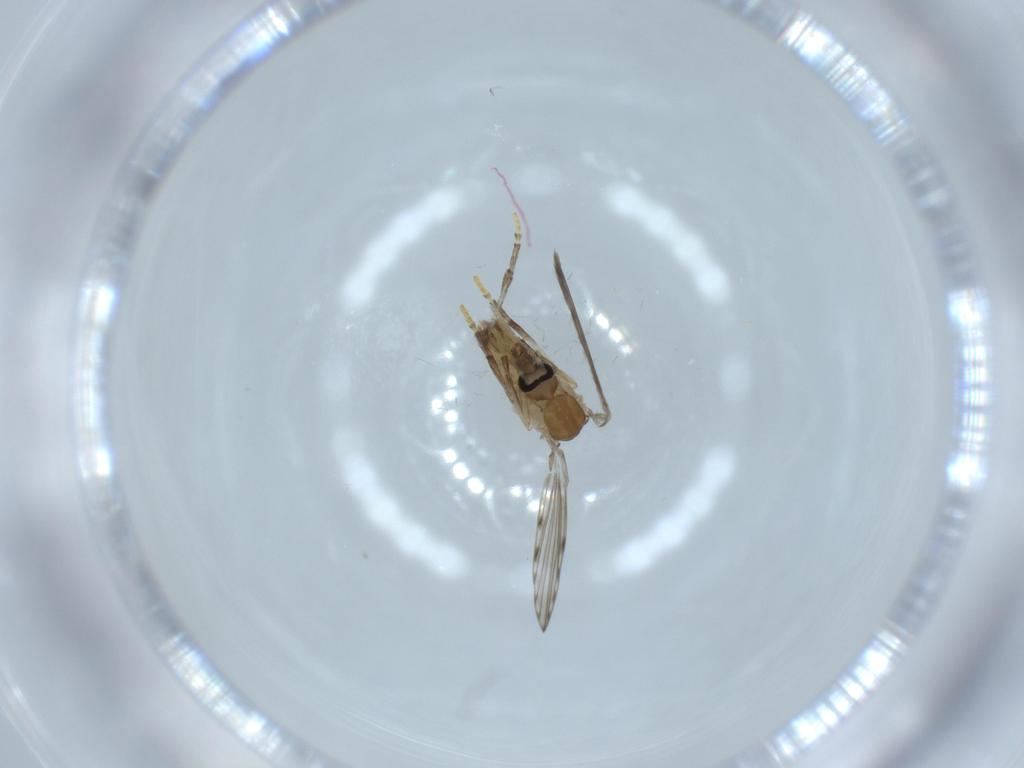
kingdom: Animalia
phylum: Arthropoda
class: Insecta
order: Diptera
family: Psychodidae
